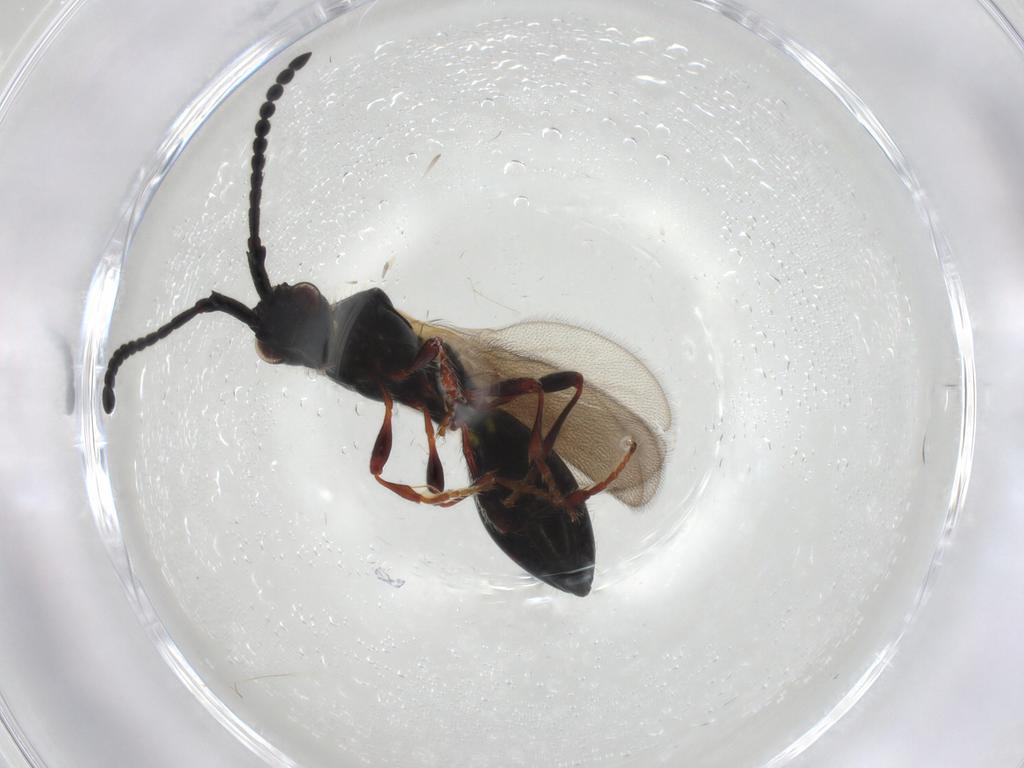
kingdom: Animalia
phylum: Arthropoda
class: Insecta
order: Hymenoptera
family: Diapriidae
